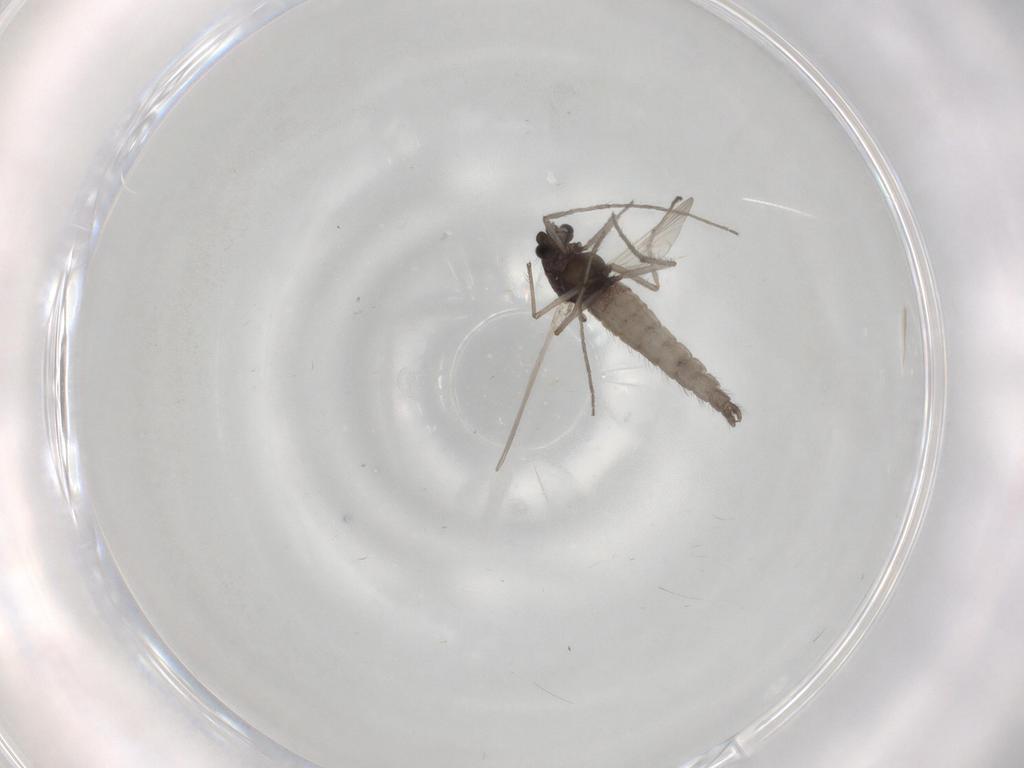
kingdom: Animalia
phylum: Arthropoda
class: Insecta
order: Diptera
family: Chironomidae
